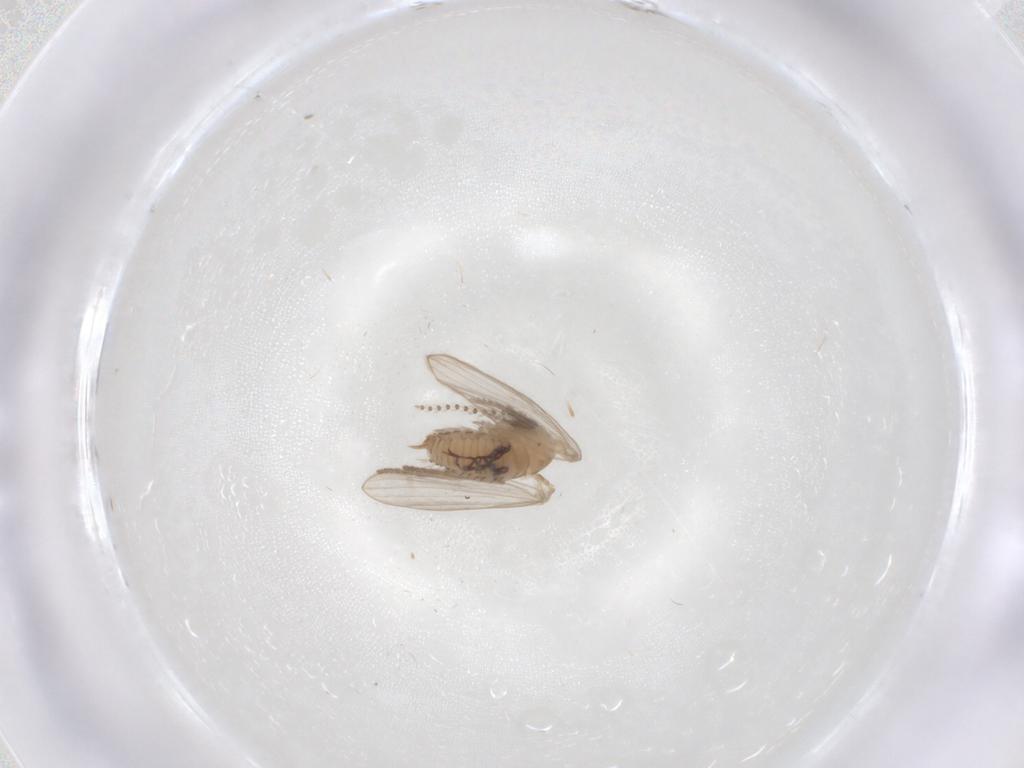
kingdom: Animalia
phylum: Arthropoda
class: Insecta
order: Diptera
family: Psychodidae
